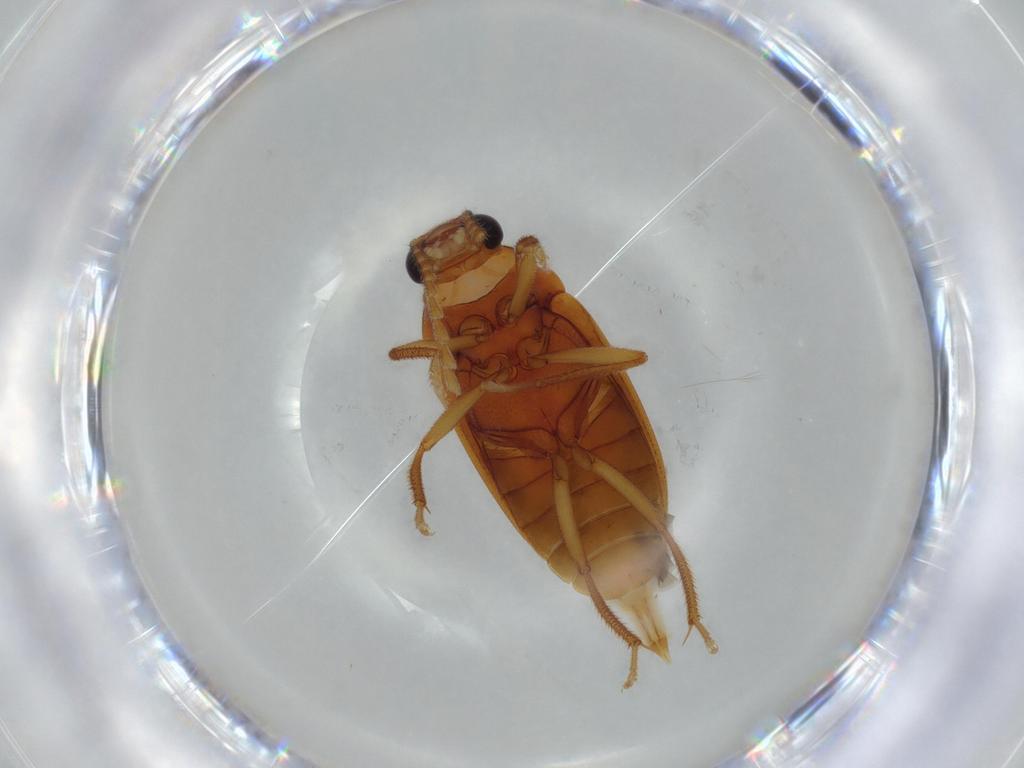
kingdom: Animalia
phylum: Arthropoda
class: Insecta
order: Coleoptera
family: Ptilodactylidae
